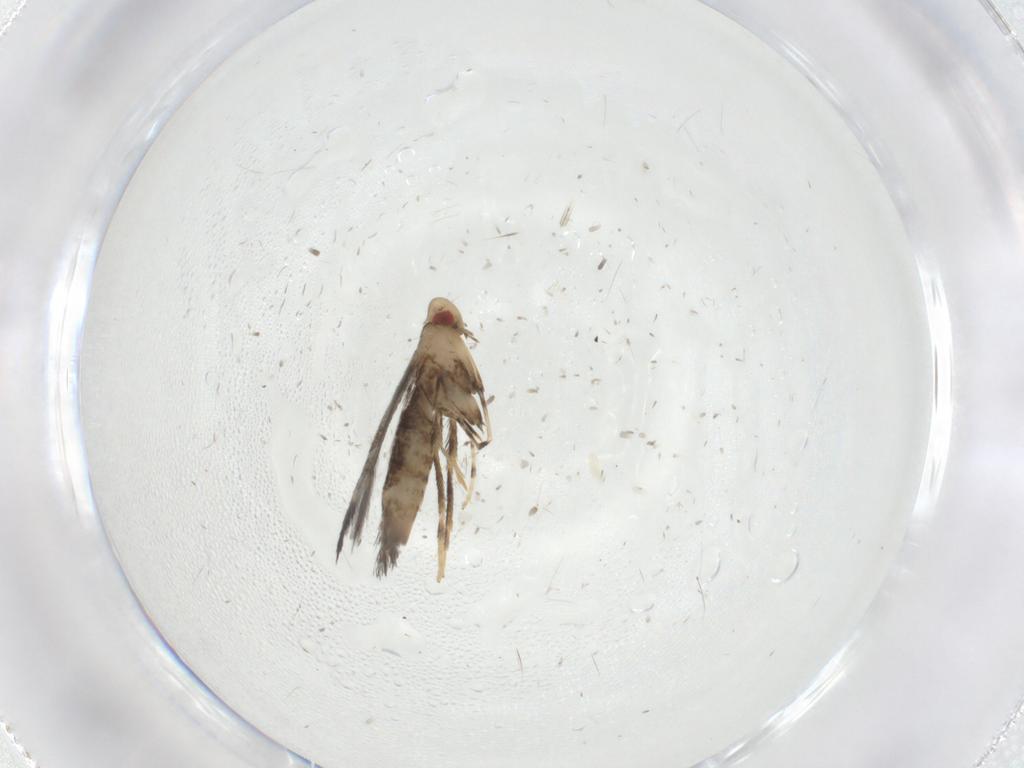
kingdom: Animalia
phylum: Arthropoda
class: Insecta
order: Lepidoptera
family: Gracillariidae
